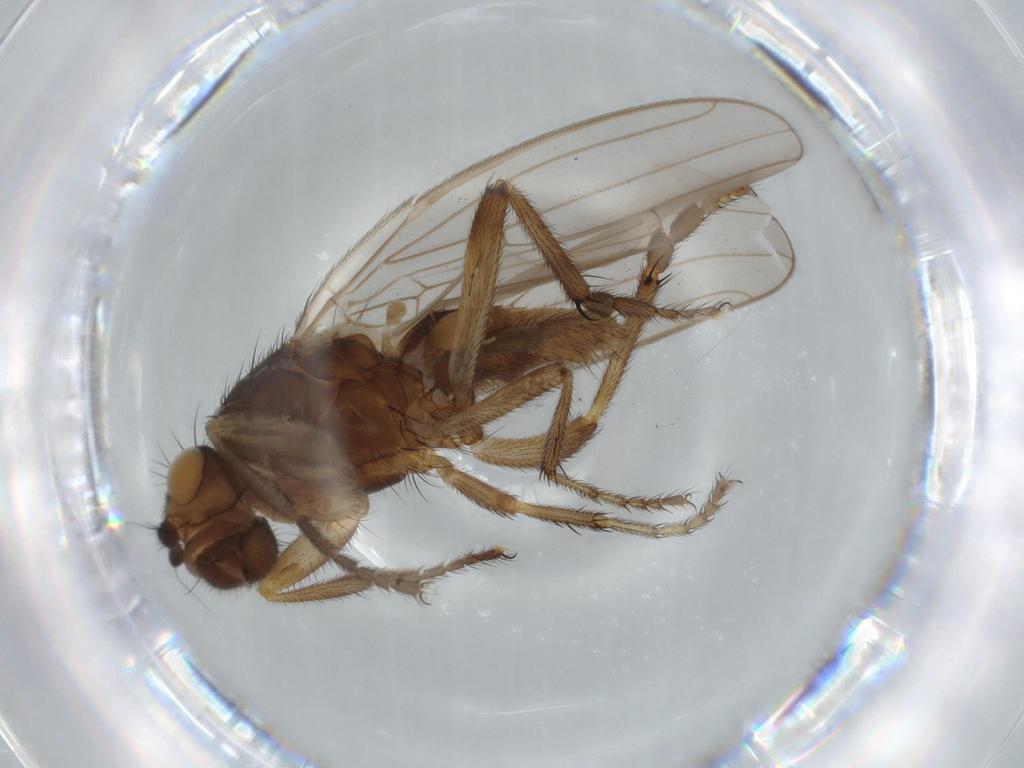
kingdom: Animalia
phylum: Arthropoda
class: Insecta
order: Diptera
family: Sphaeroceridae
